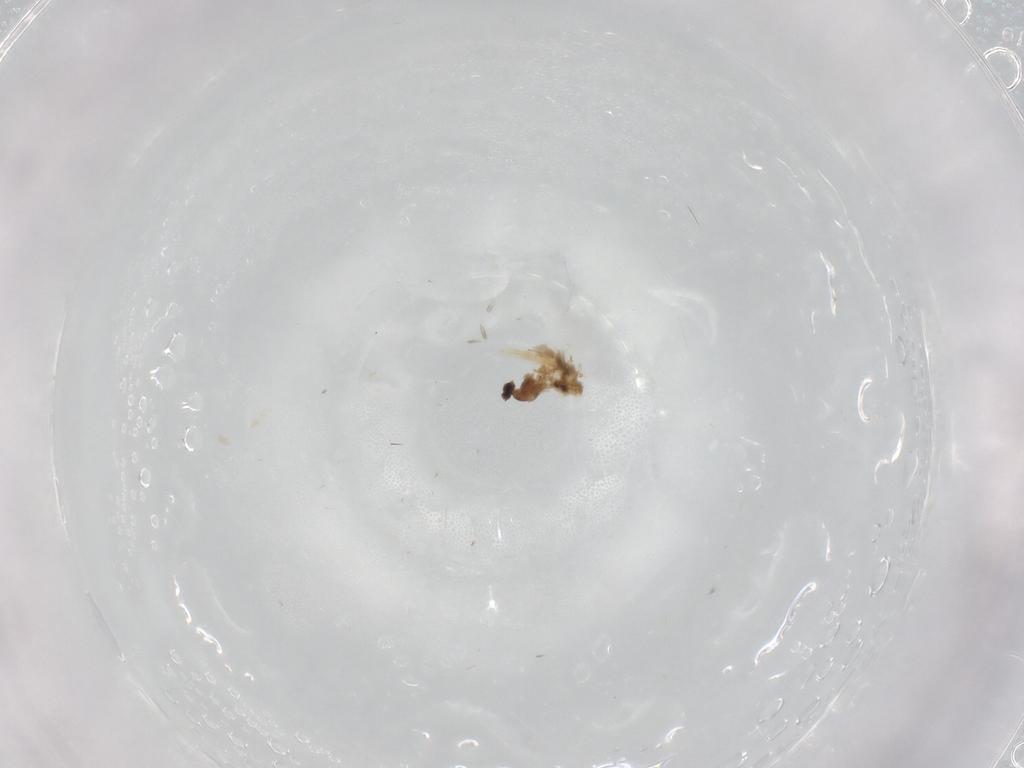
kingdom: Animalia
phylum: Arthropoda
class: Insecta
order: Diptera
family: Cecidomyiidae
